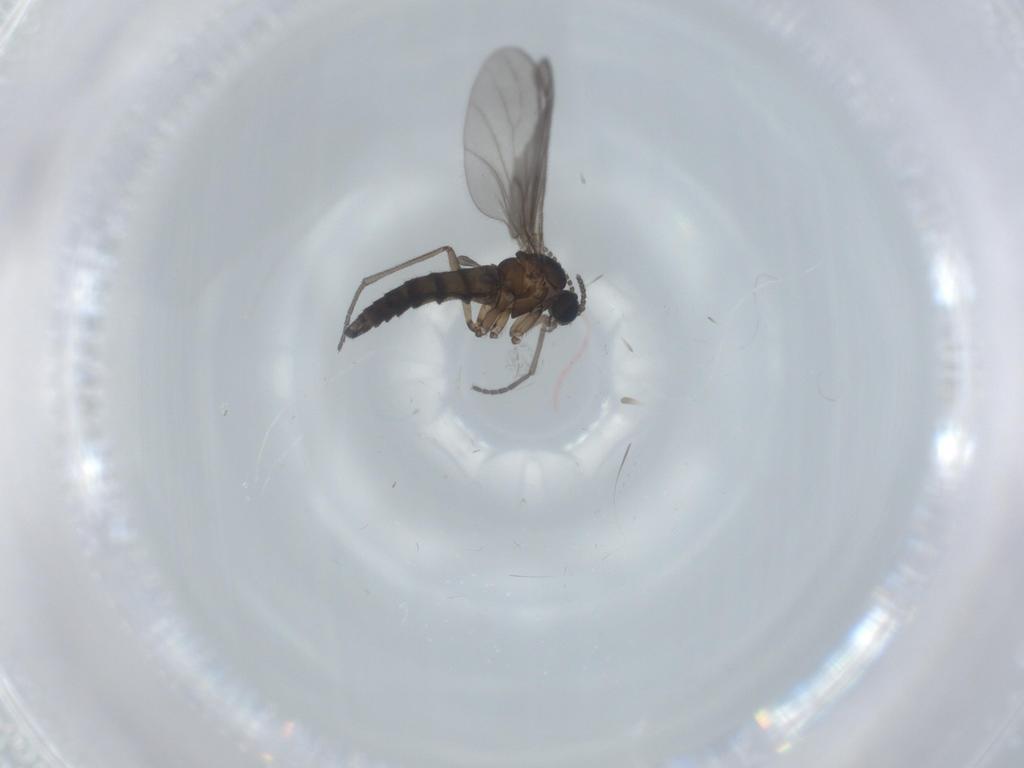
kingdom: Animalia
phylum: Arthropoda
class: Insecta
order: Diptera
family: Sciaridae
